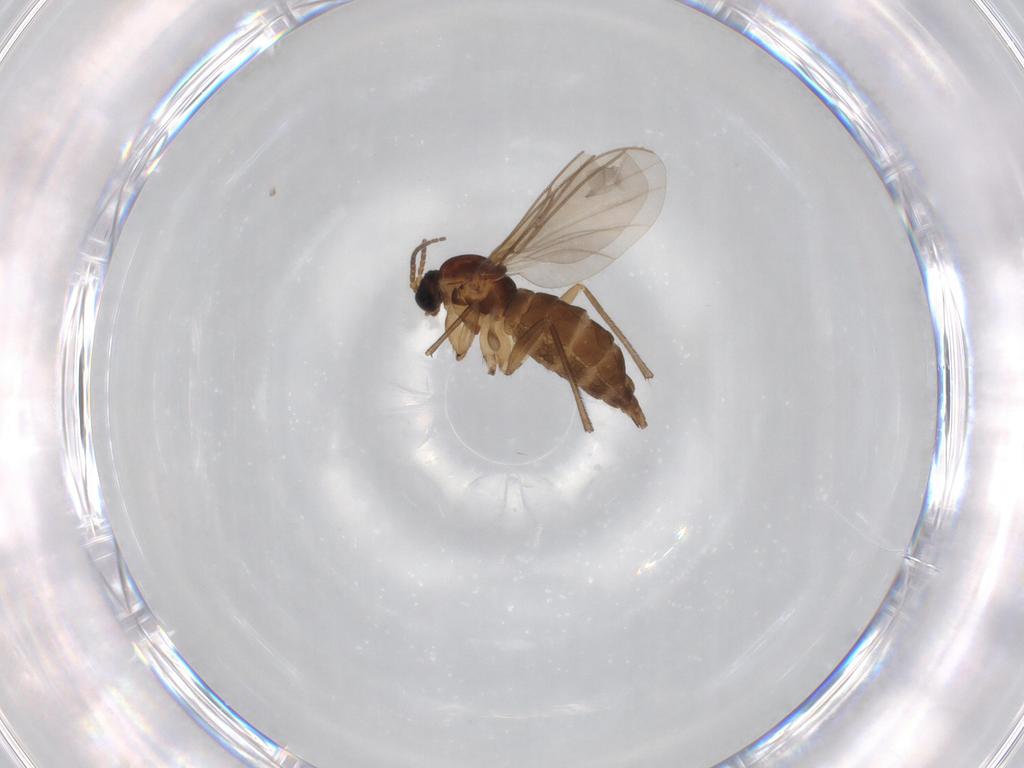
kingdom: Animalia
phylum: Arthropoda
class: Insecta
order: Diptera
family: Sciaridae
